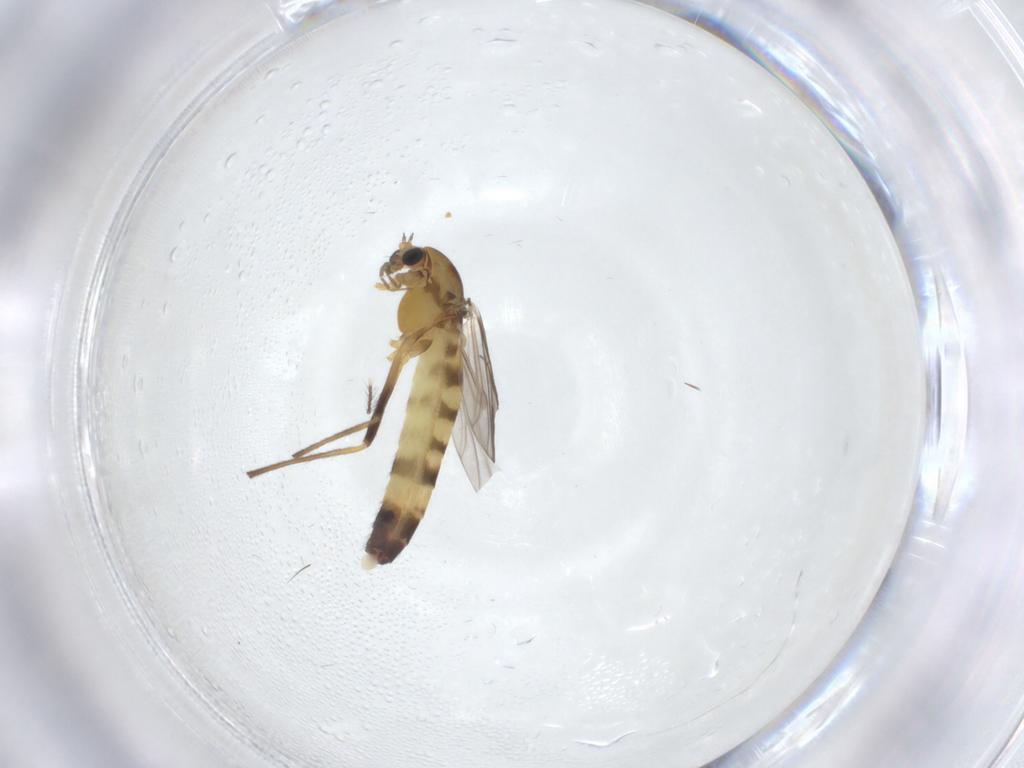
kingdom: Animalia
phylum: Arthropoda
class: Insecta
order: Diptera
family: Chironomidae
